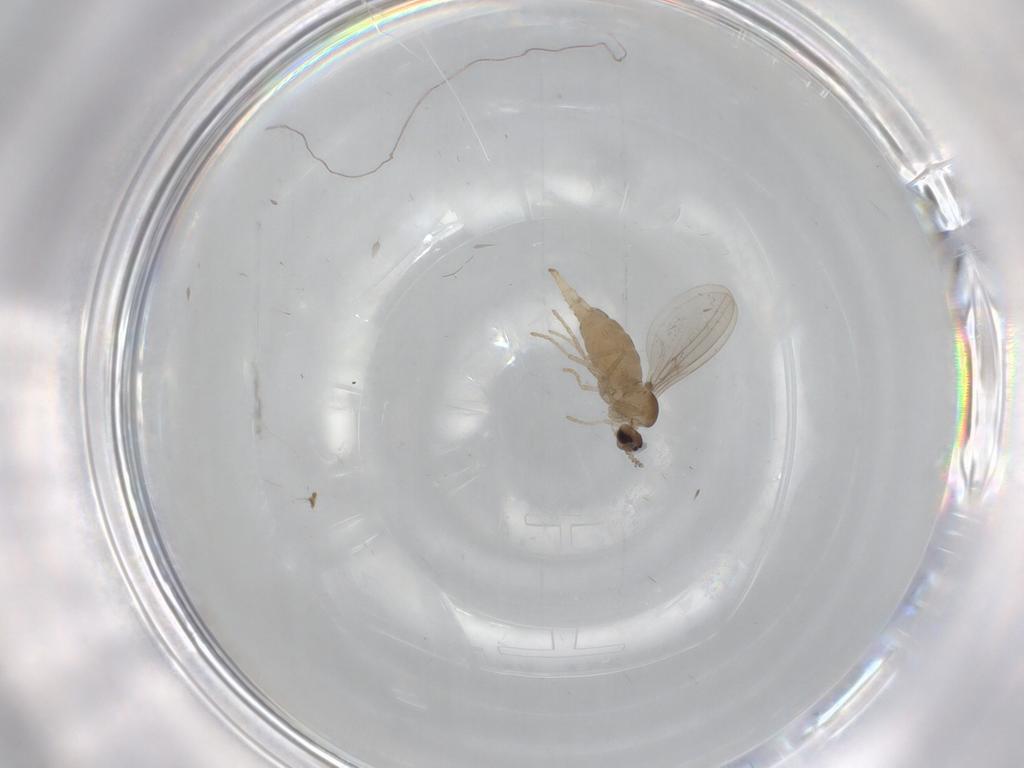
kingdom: Animalia
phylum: Arthropoda
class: Insecta
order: Diptera
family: Cecidomyiidae
